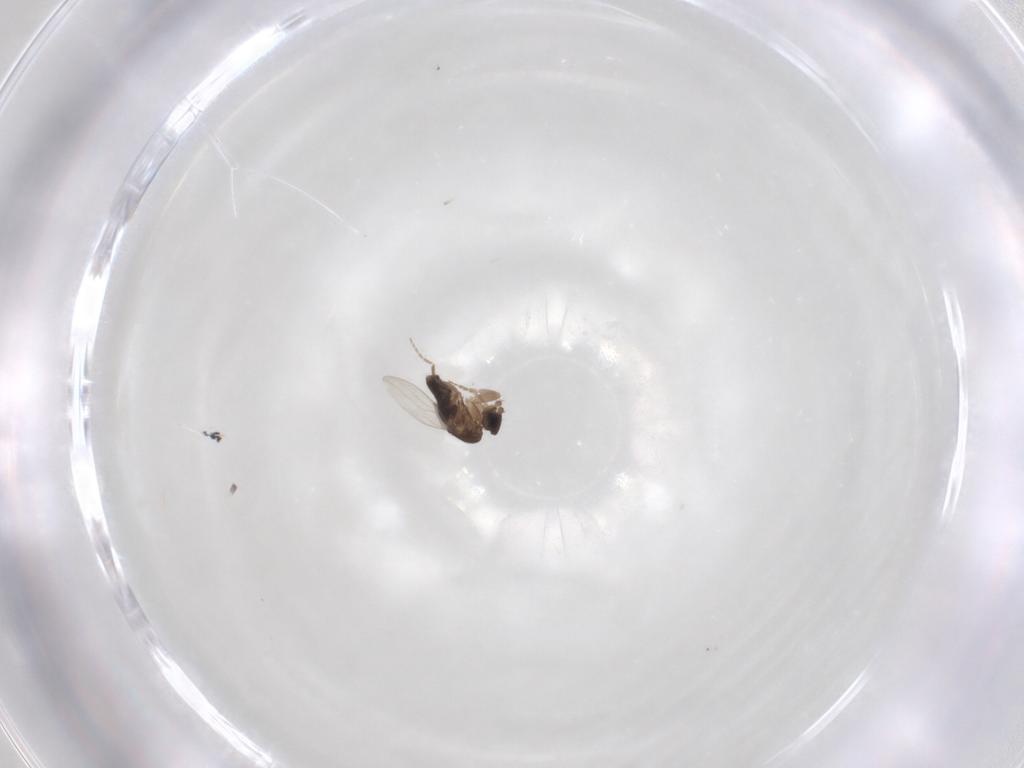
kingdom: Animalia
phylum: Arthropoda
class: Insecta
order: Diptera
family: Phoridae
